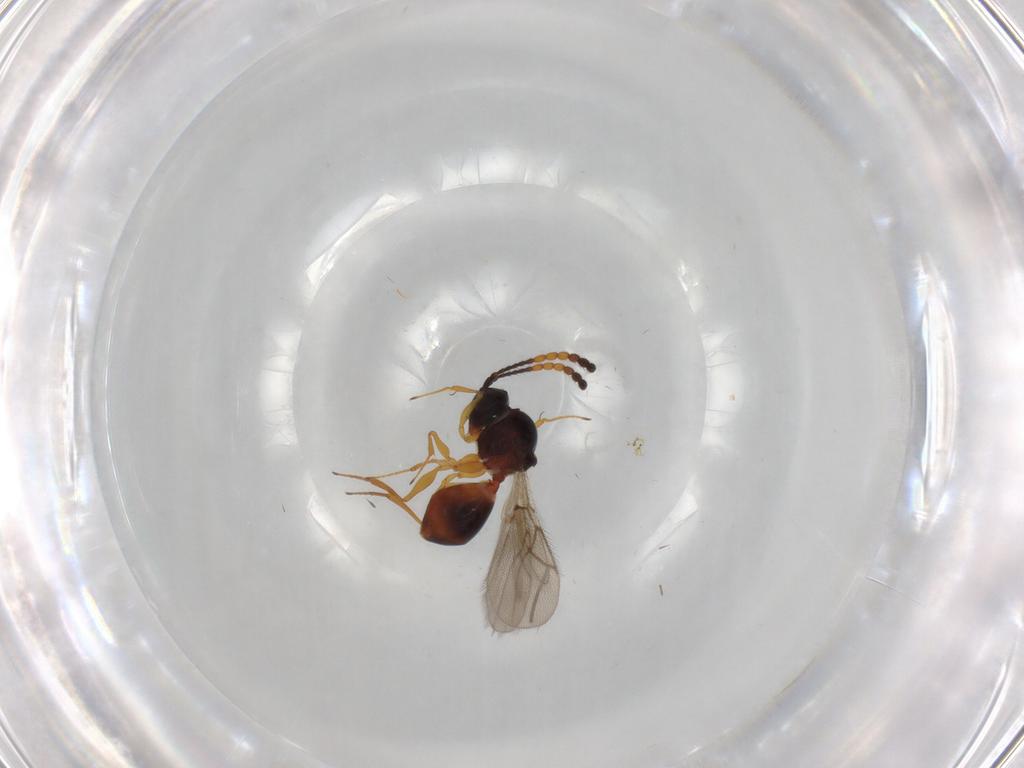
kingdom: Animalia
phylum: Arthropoda
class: Insecta
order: Hymenoptera
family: Figitidae
